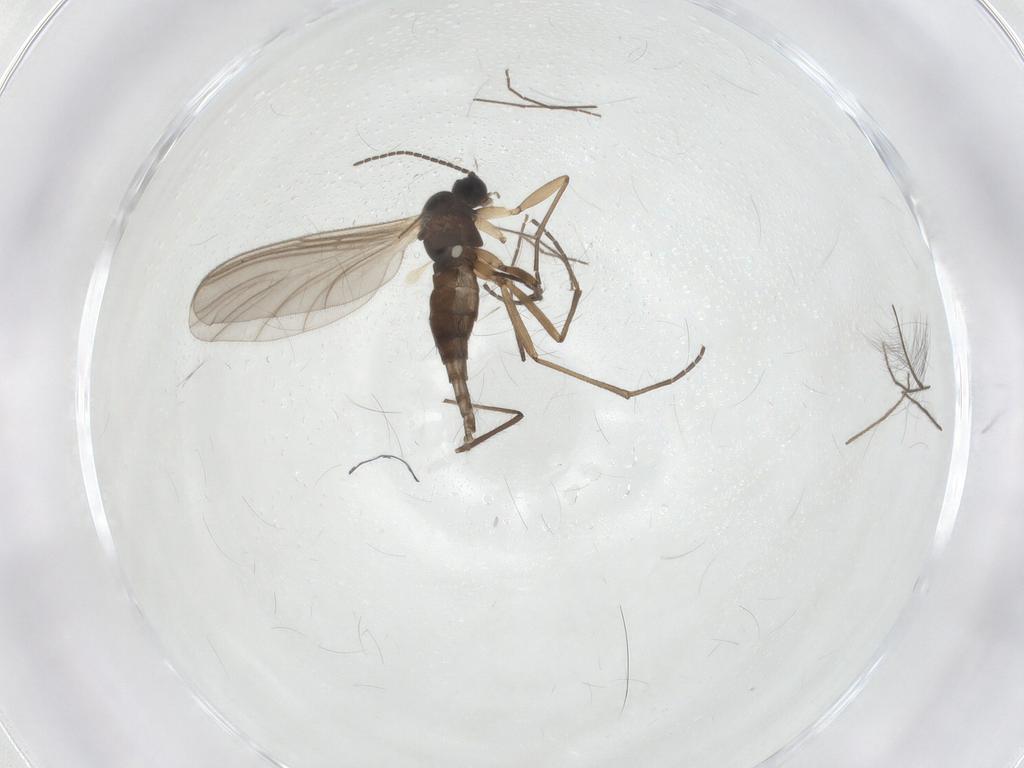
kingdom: Animalia
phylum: Arthropoda
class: Insecta
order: Diptera
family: Sciaridae
